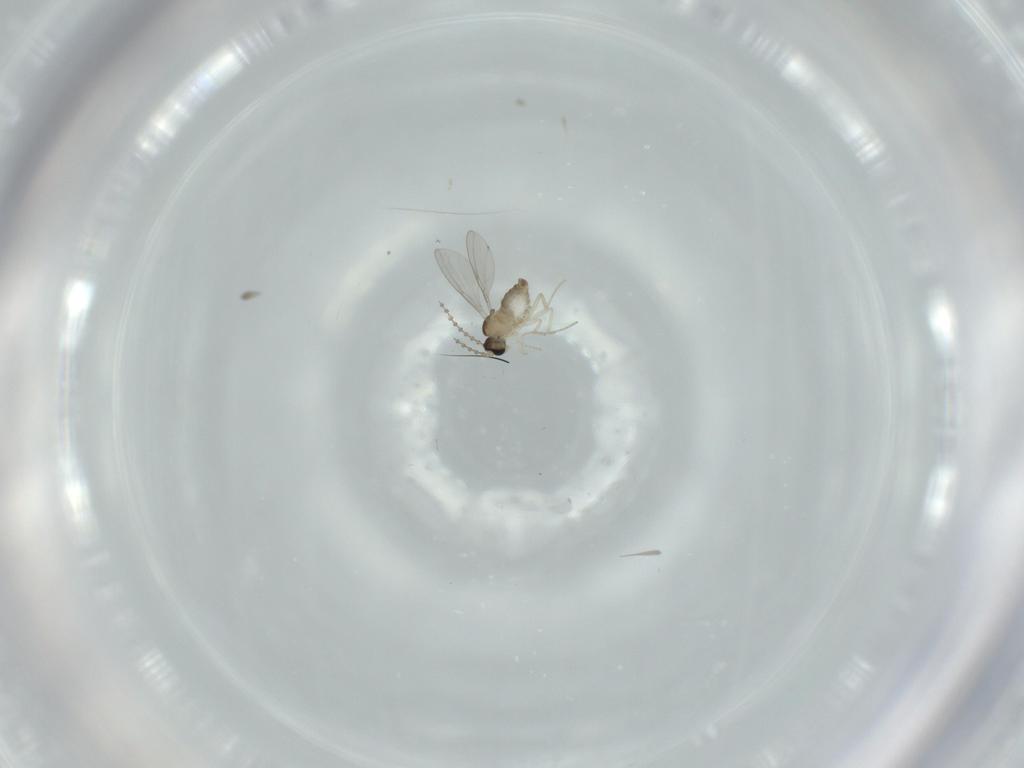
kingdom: Animalia
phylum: Arthropoda
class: Insecta
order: Diptera
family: Cecidomyiidae
